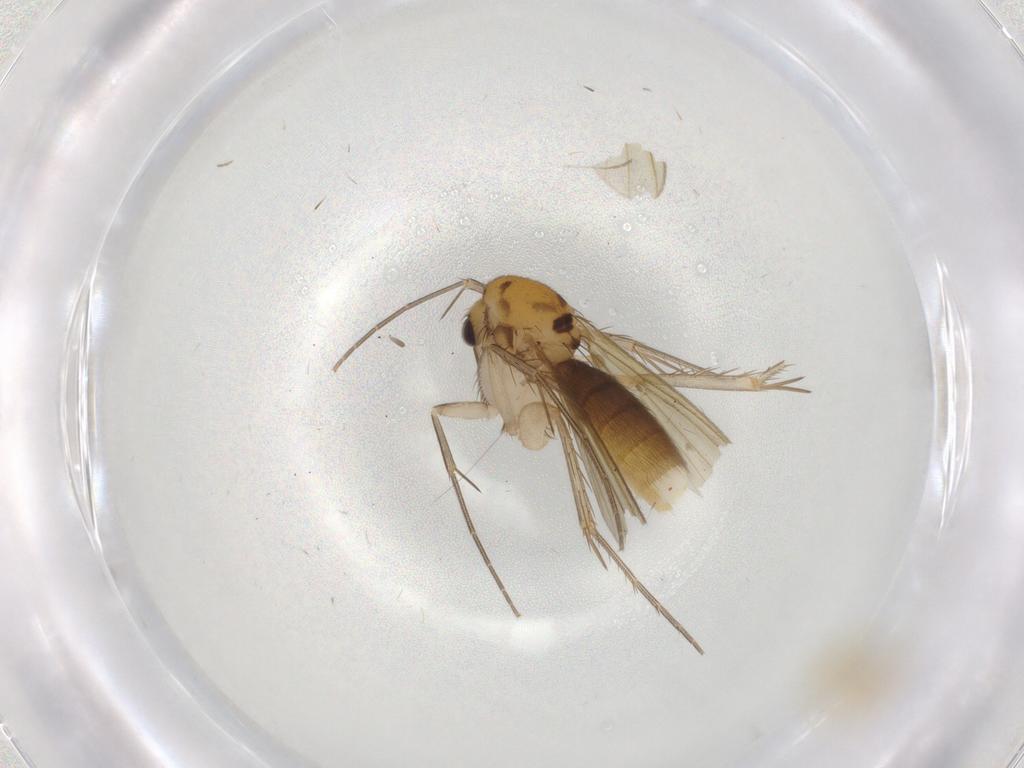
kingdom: Animalia
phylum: Arthropoda
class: Insecta
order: Diptera
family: Mycetophilidae
